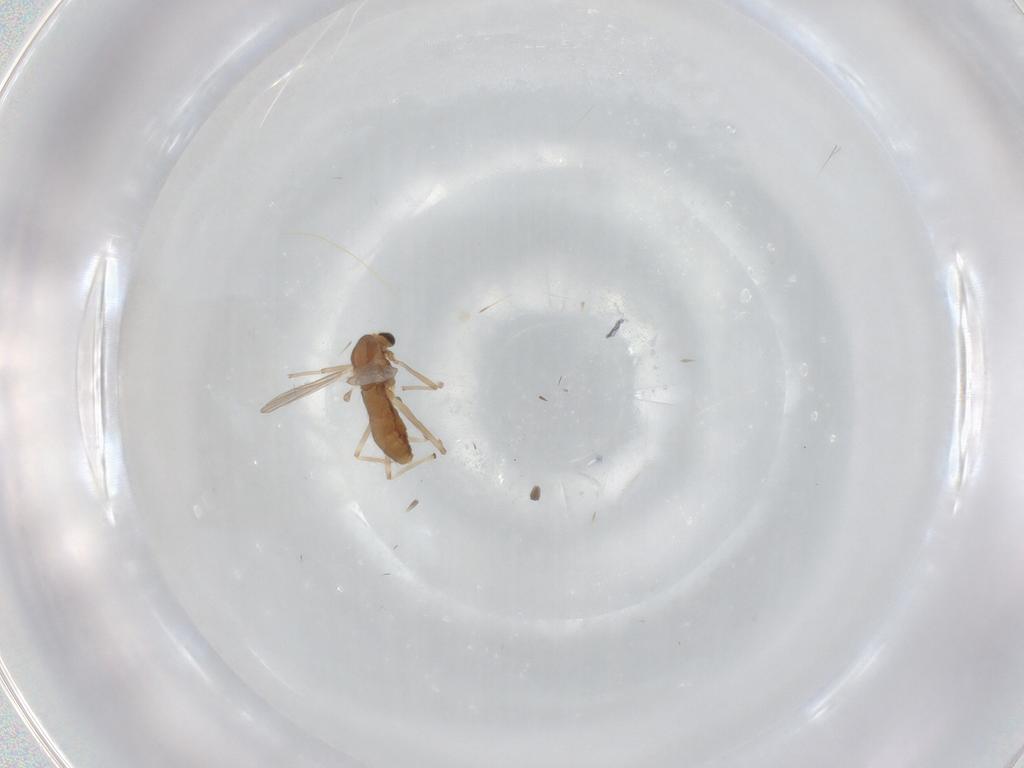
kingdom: Animalia
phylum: Arthropoda
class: Insecta
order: Diptera
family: Chironomidae
